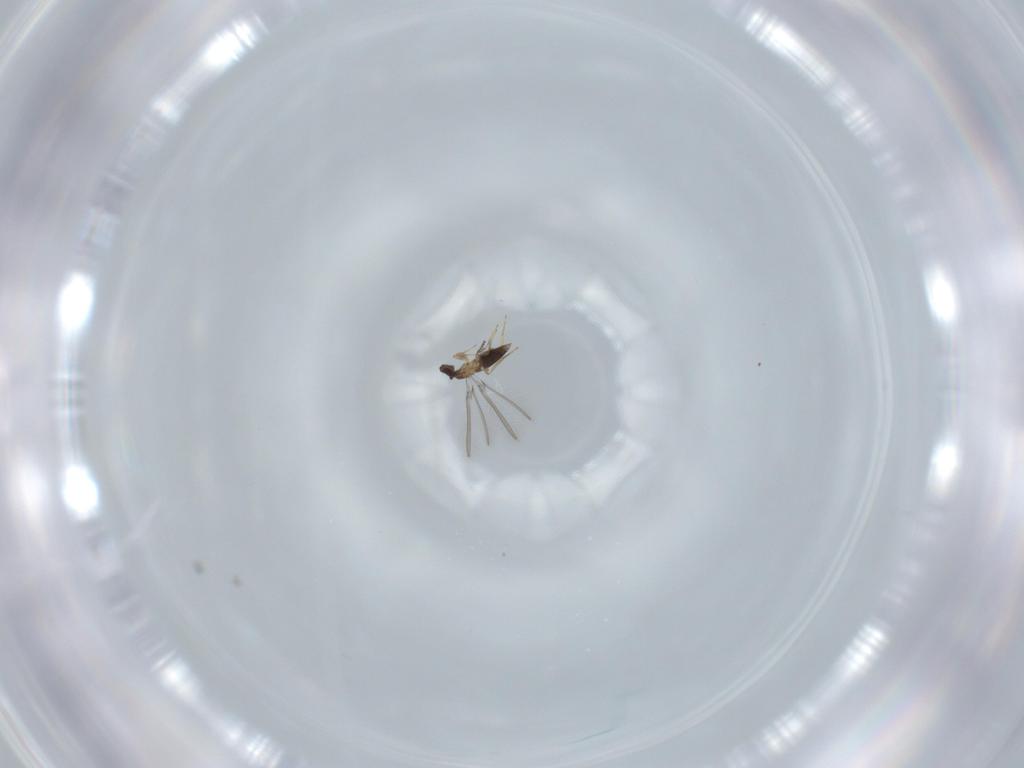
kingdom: Animalia
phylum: Arthropoda
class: Insecta
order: Hymenoptera
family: Mymaridae
